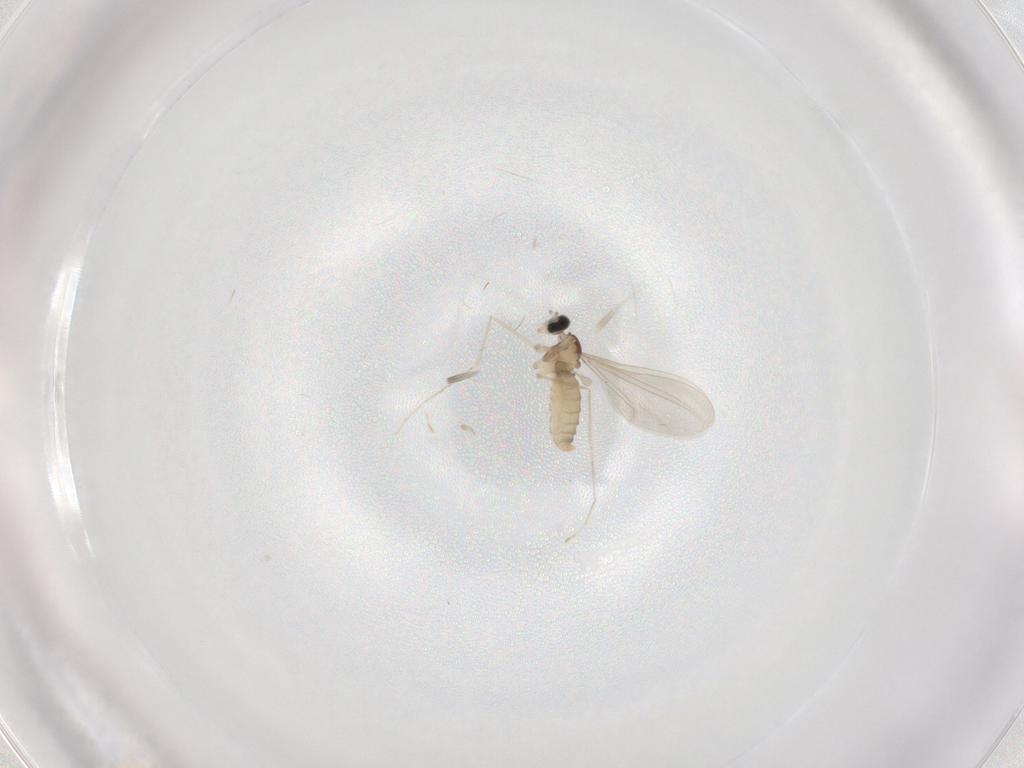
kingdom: Animalia
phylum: Arthropoda
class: Insecta
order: Diptera
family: Cecidomyiidae
